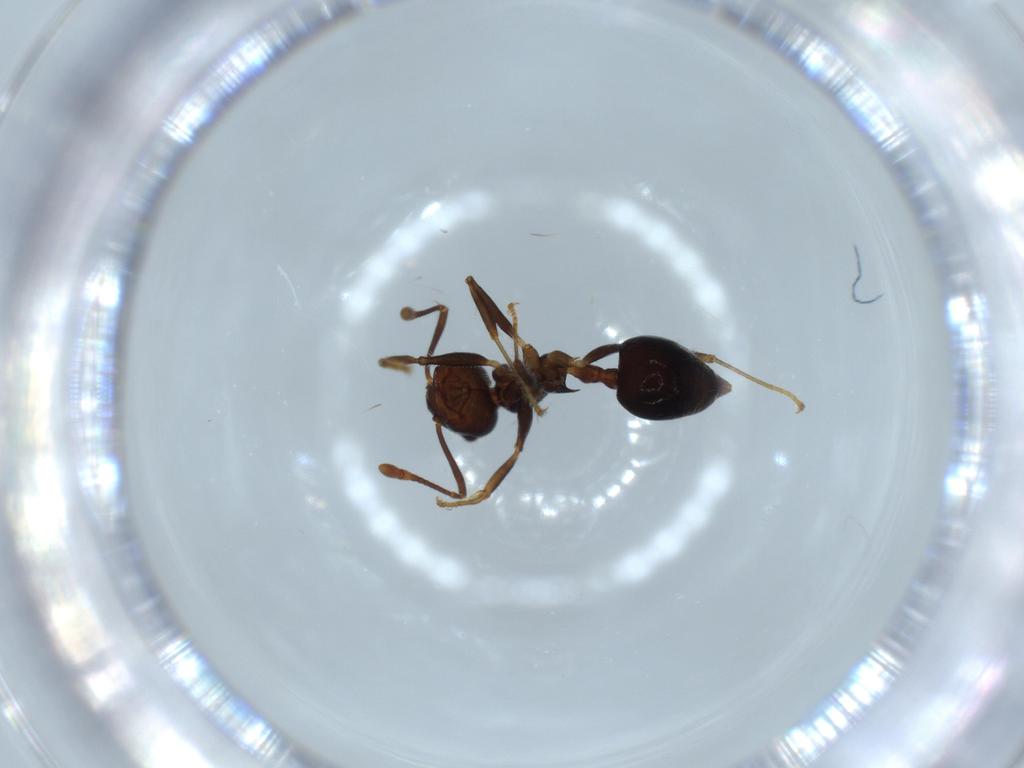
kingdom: Animalia
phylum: Arthropoda
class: Insecta
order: Hymenoptera
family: Formicidae
